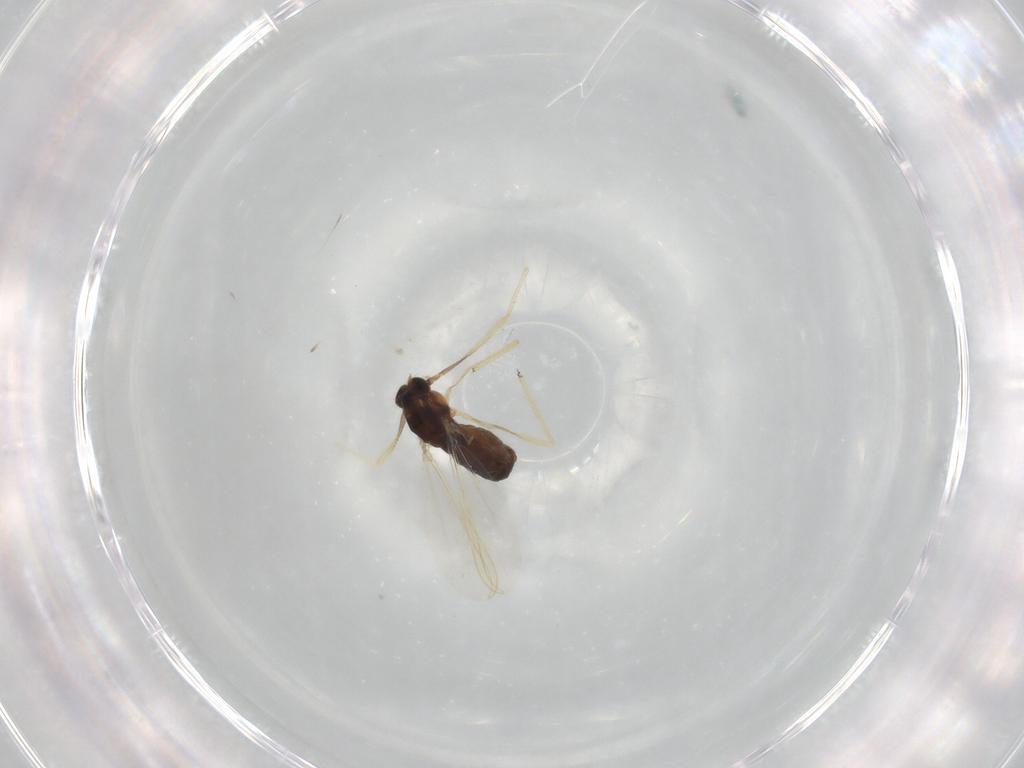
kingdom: Animalia
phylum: Arthropoda
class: Insecta
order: Diptera
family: Chironomidae
